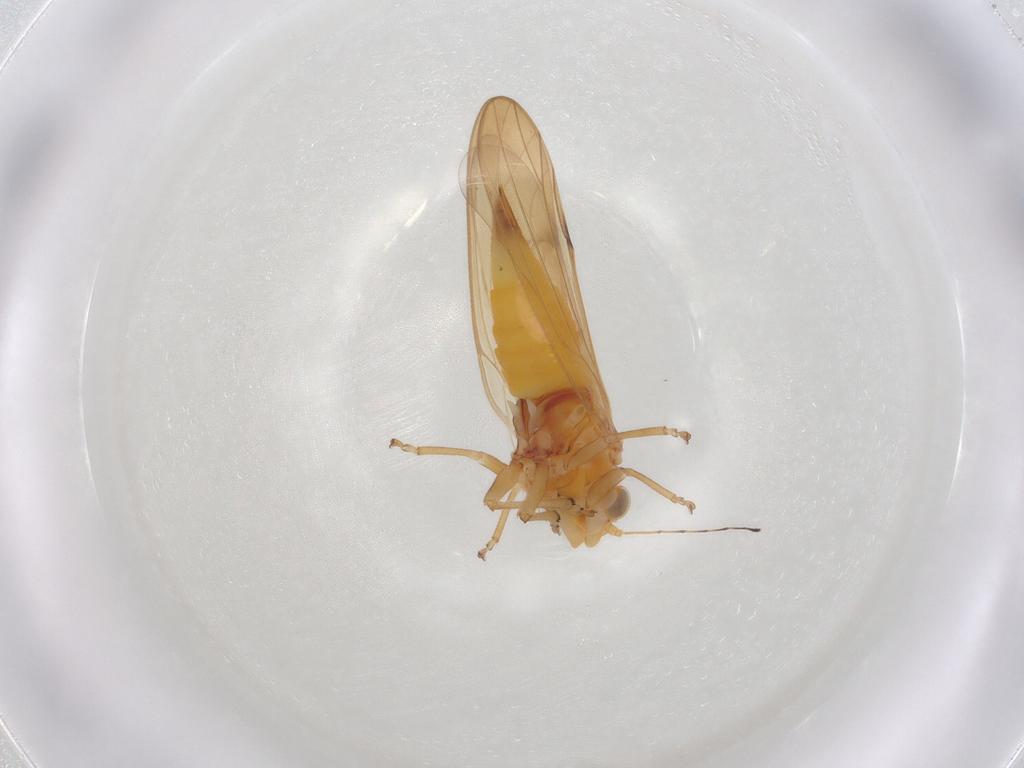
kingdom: Animalia
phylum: Arthropoda
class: Insecta
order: Hemiptera
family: Psylloidea_incertae_sedis
